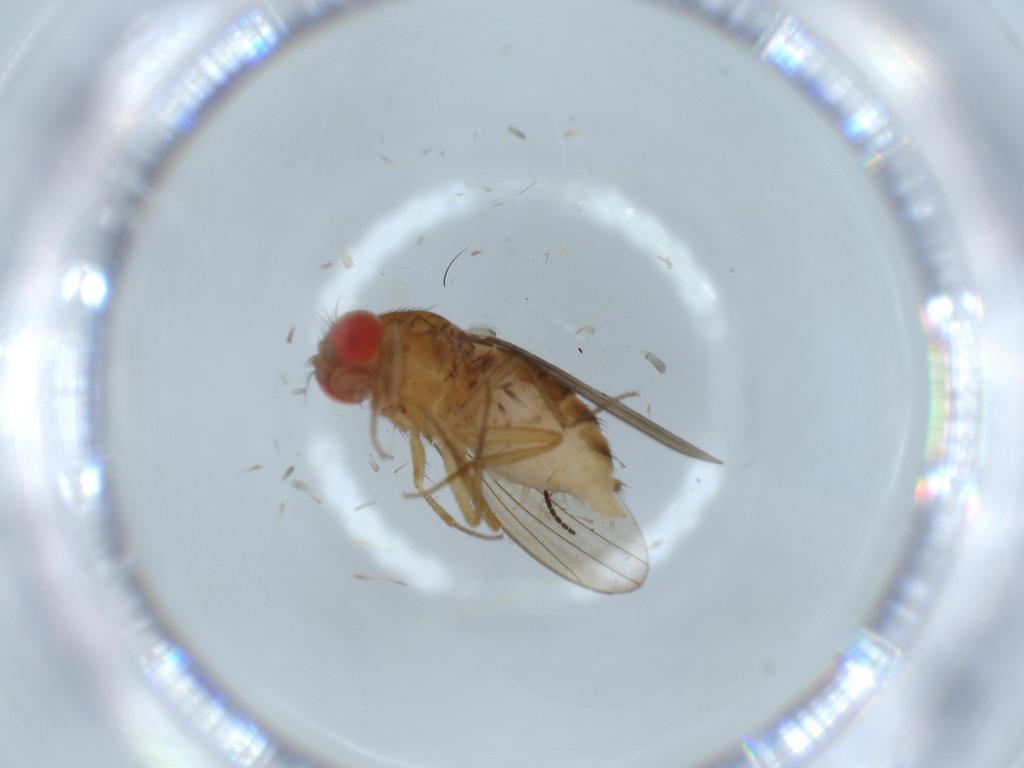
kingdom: Animalia
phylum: Arthropoda
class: Insecta
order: Diptera
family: Drosophilidae
